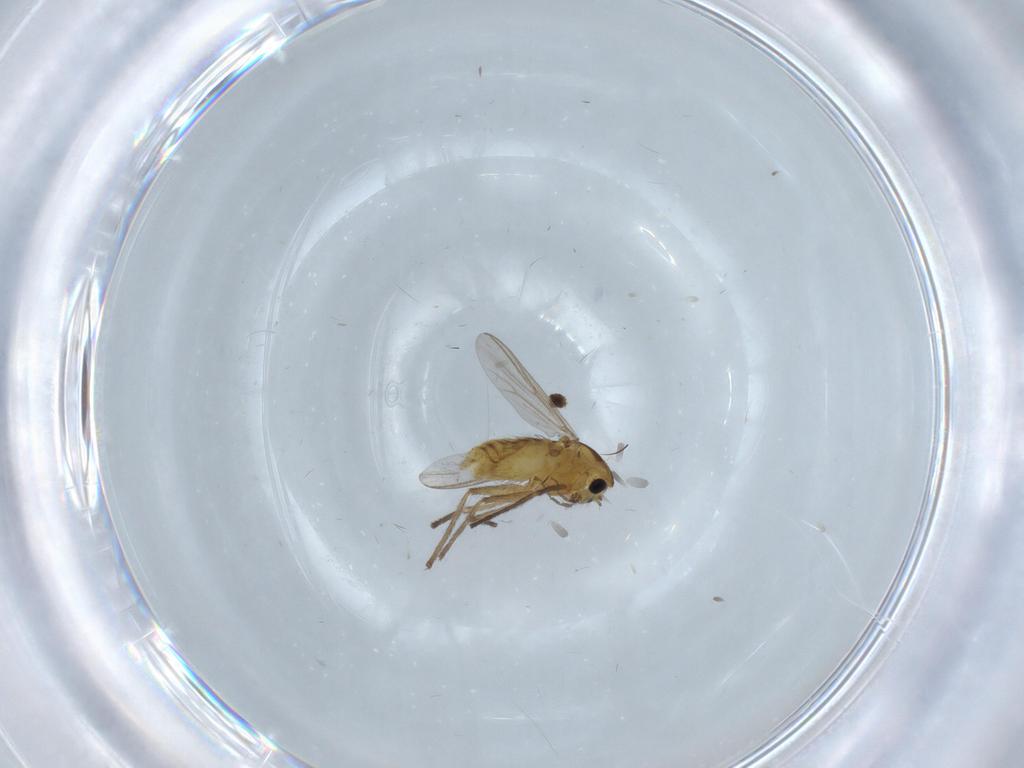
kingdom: Animalia
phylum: Arthropoda
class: Insecta
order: Diptera
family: Chironomidae
